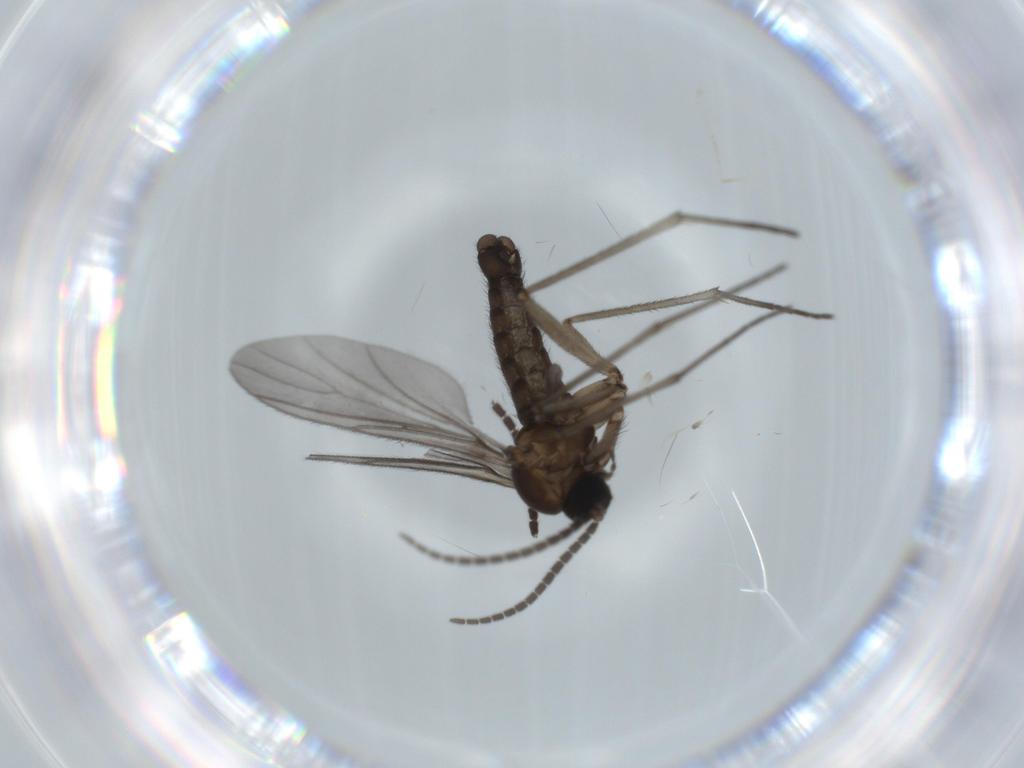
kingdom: Animalia
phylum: Arthropoda
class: Insecta
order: Diptera
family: Sciaridae
